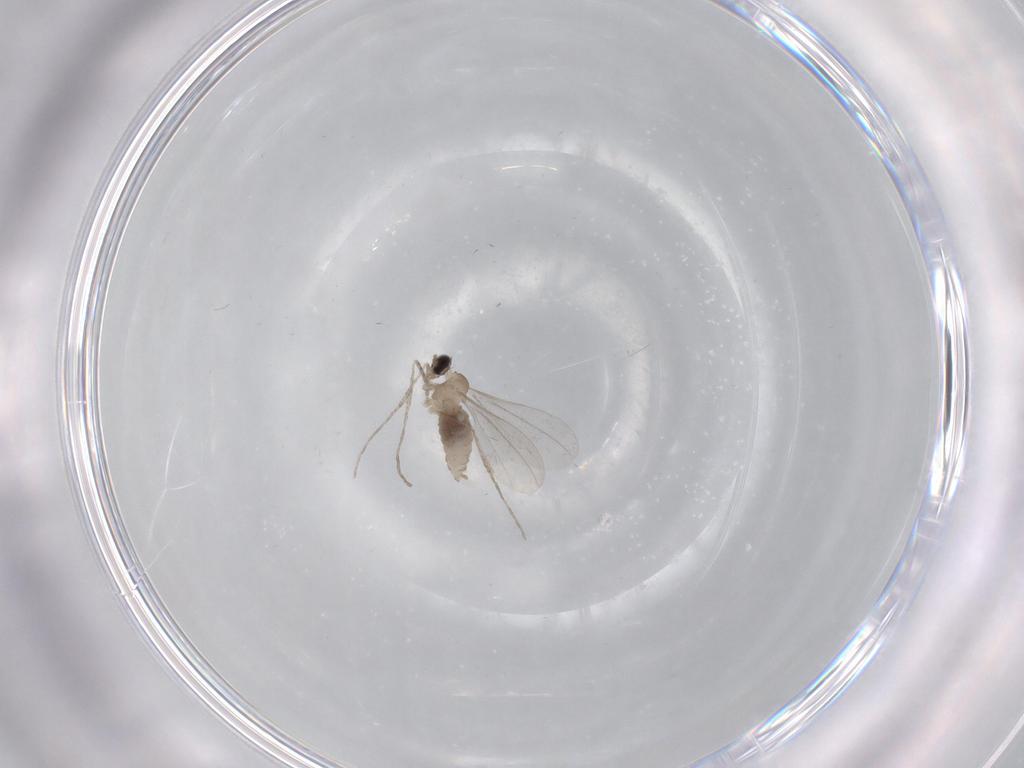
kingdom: Animalia
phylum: Arthropoda
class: Insecta
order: Diptera
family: Cecidomyiidae
